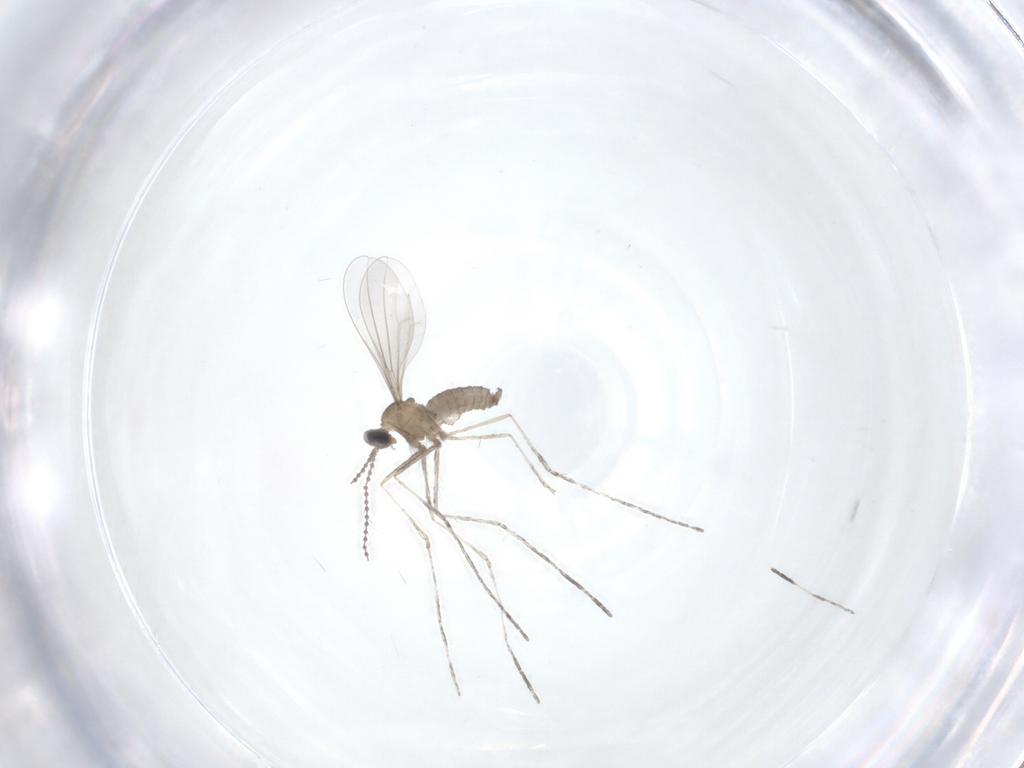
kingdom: Animalia
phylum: Arthropoda
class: Insecta
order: Diptera
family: Cecidomyiidae
